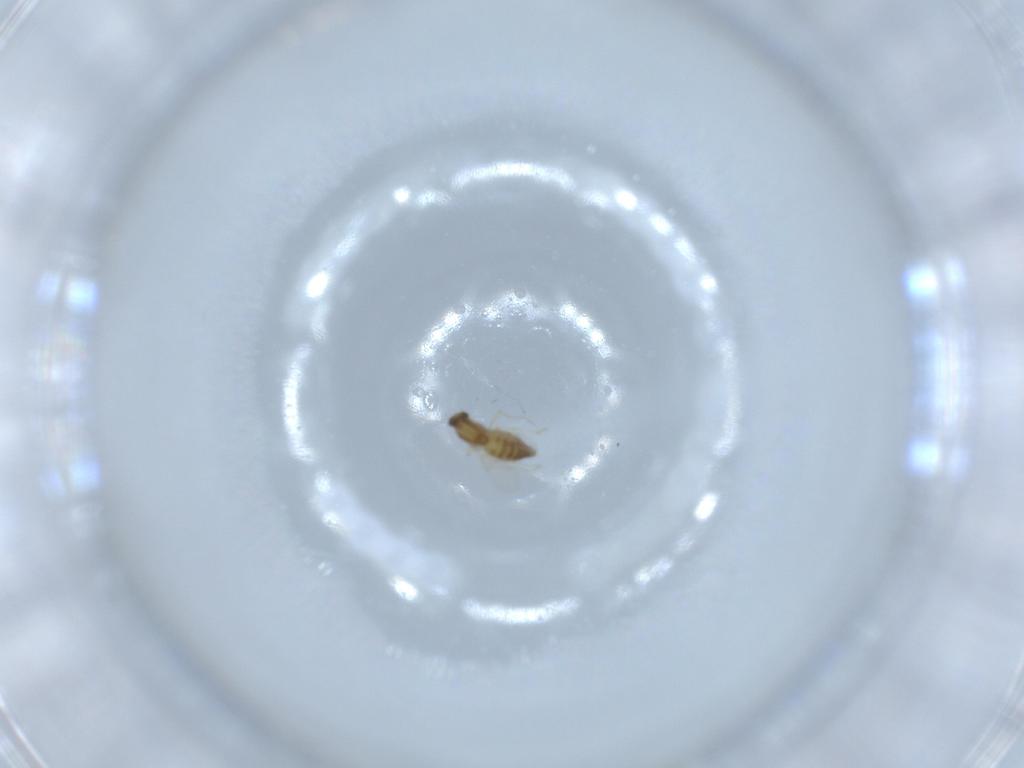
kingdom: Animalia
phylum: Arthropoda
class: Insecta
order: Diptera
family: Chironomidae
